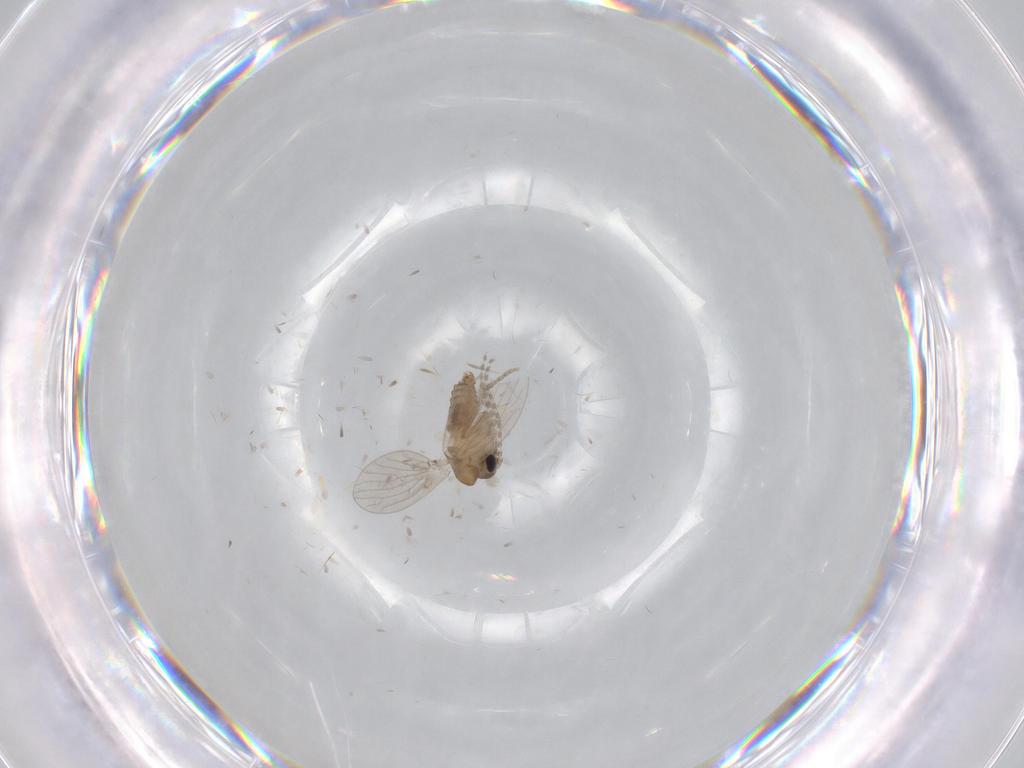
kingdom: Animalia
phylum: Arthropoda
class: Insecta
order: Diptera
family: Psychodidae
